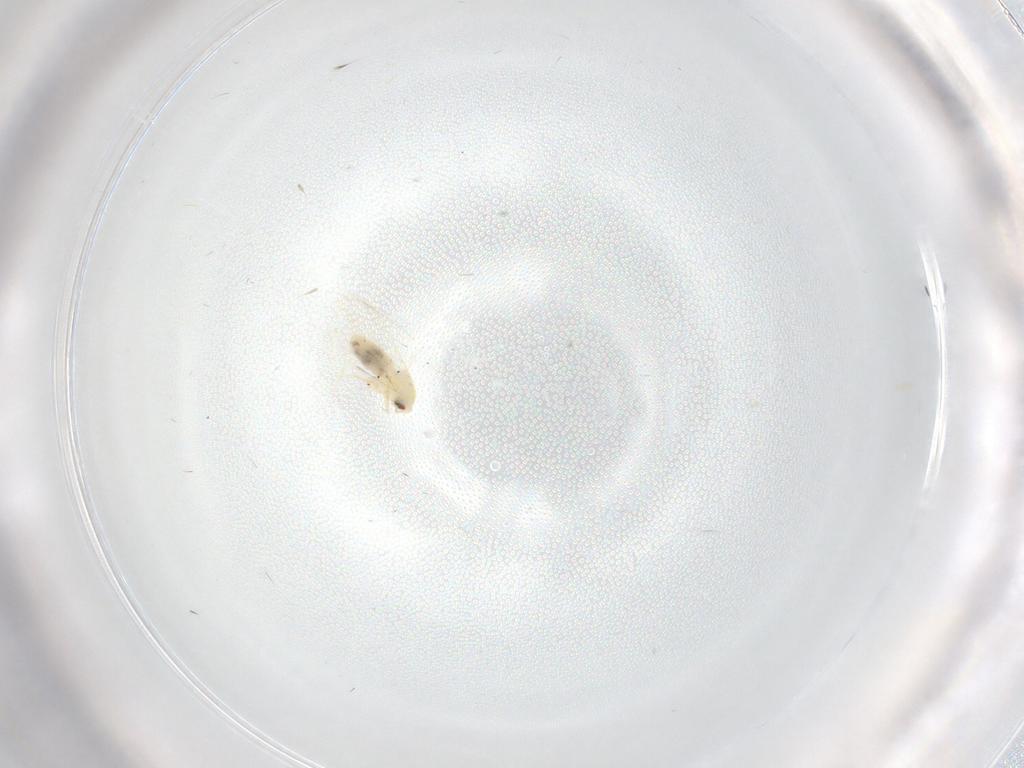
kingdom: Animalia
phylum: Arthropoda
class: Insecta
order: Hemiptera
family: Aleyrodidae
